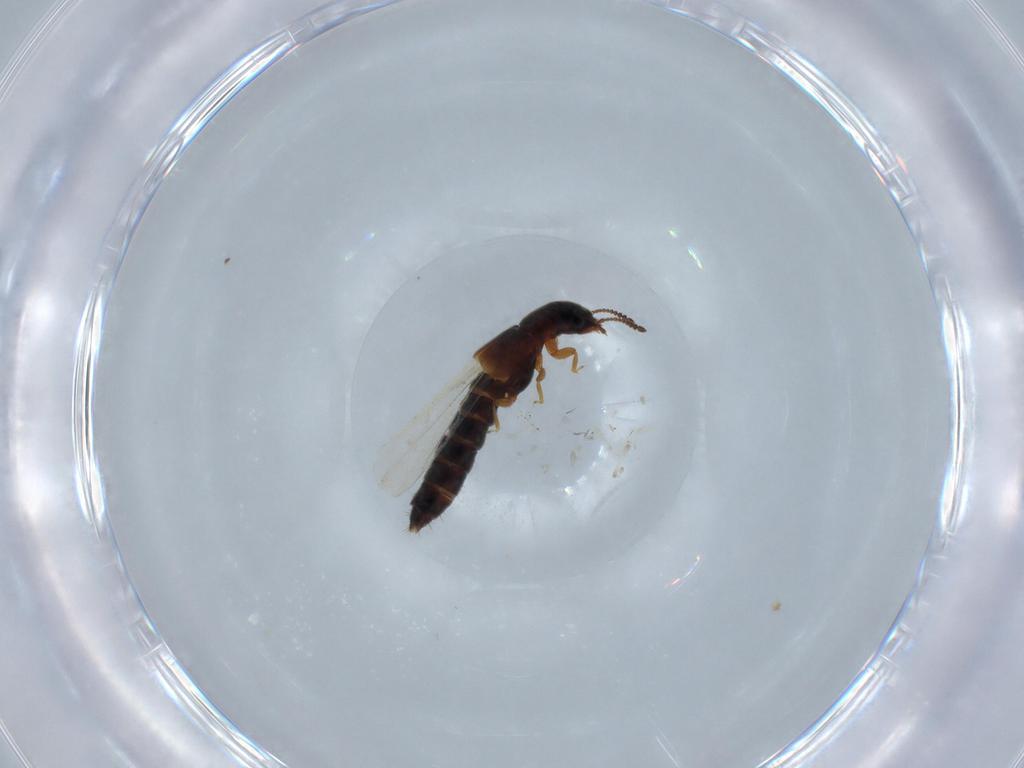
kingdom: Animalia
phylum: Arthropoda
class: Insecta
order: Coleoptera
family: Staphylinidae
